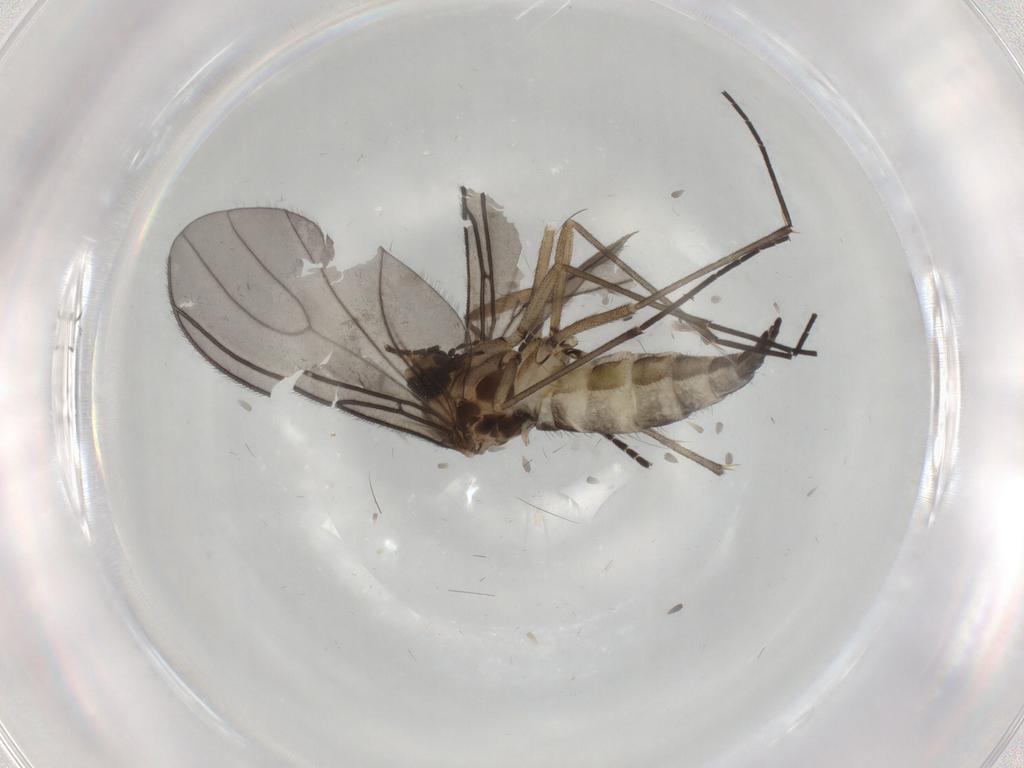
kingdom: Animalia
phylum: Arthropoda
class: Insecta
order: Diptera
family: Sciaridae
